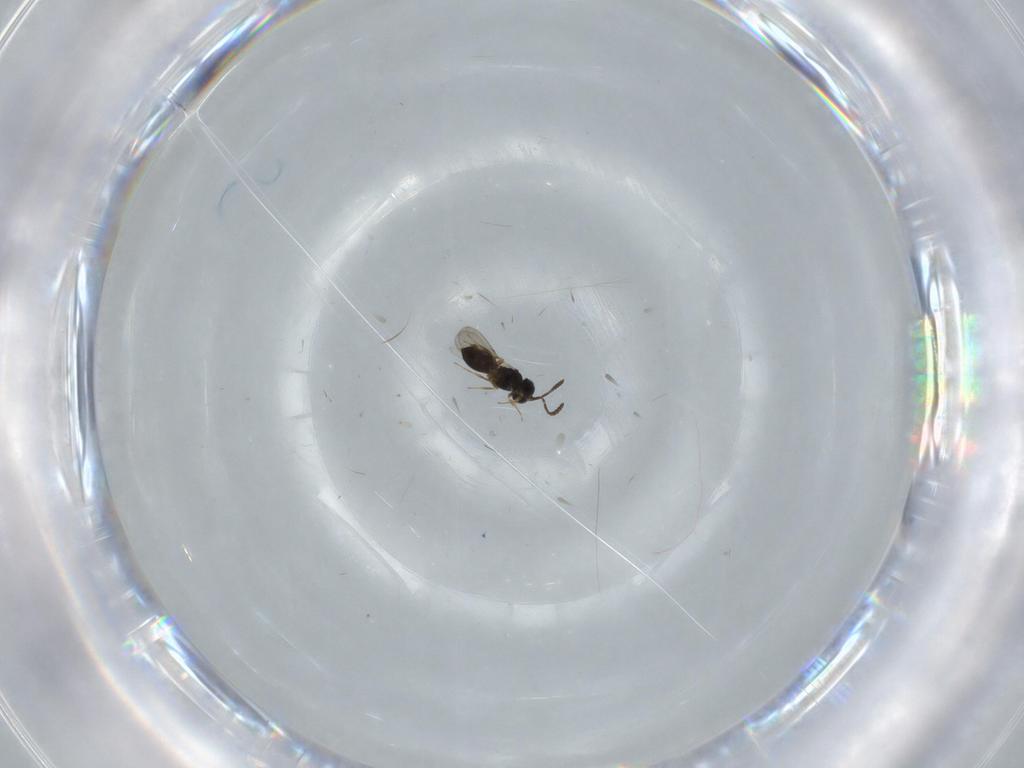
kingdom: Animalia
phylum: Arthropoda
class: Insecta
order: Hymenoptera
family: Scelionidae
